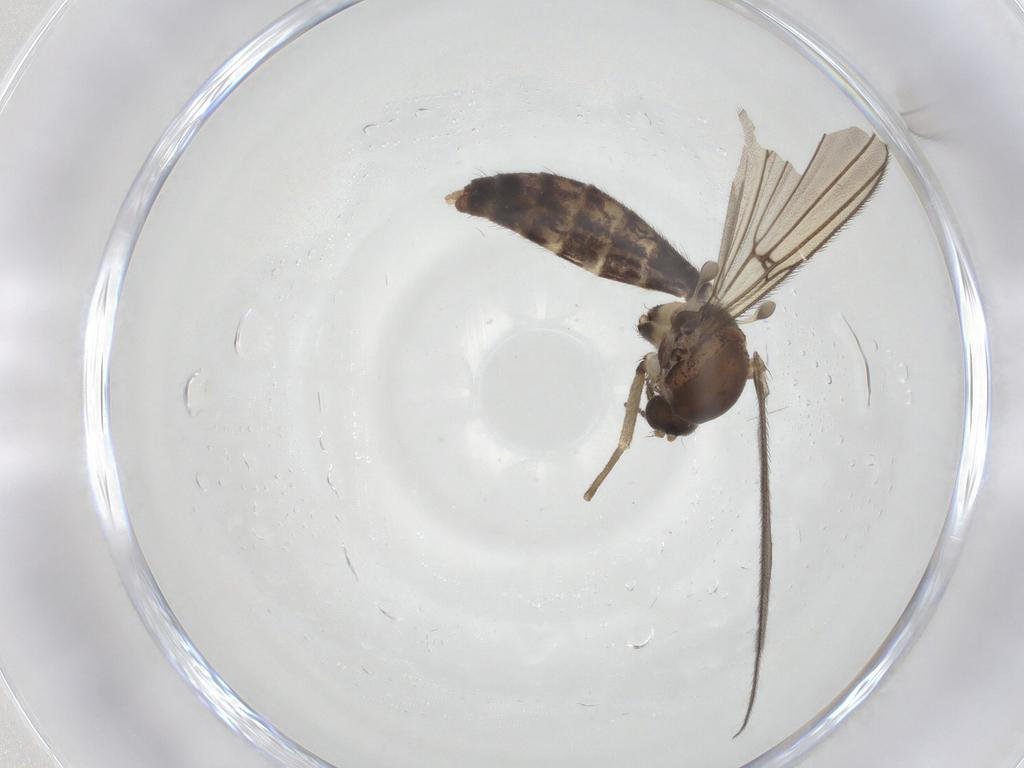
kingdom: Animalia
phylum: Arthropoda
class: Insecta
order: Diptera
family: Mycetophilidae
